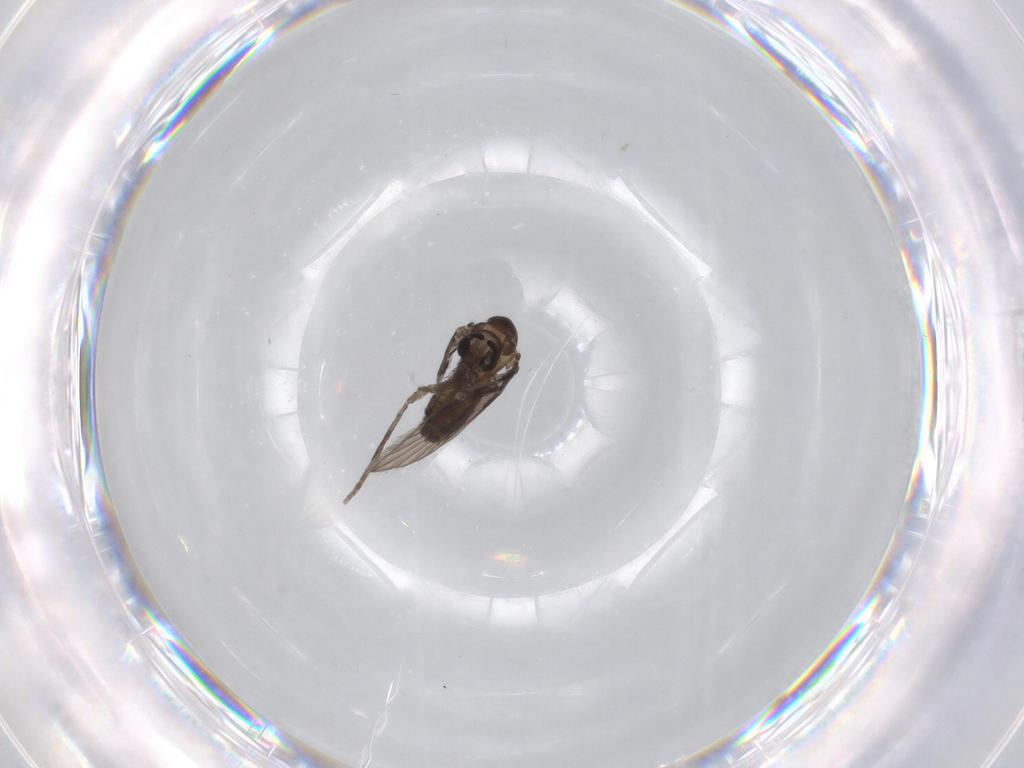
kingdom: Animalia
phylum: Arthropoda
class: Insecta
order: Diptera
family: Psychodidae
